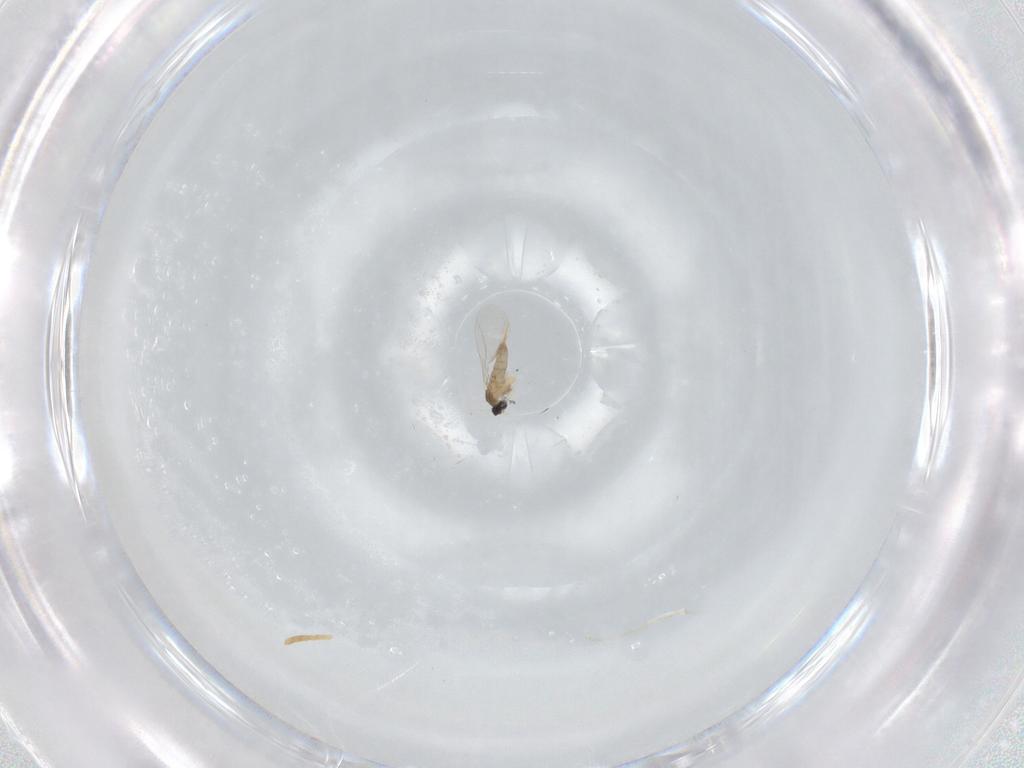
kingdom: Animalia
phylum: Arthropoda
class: Insecta
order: Diptera
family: Cecidomyiidae
